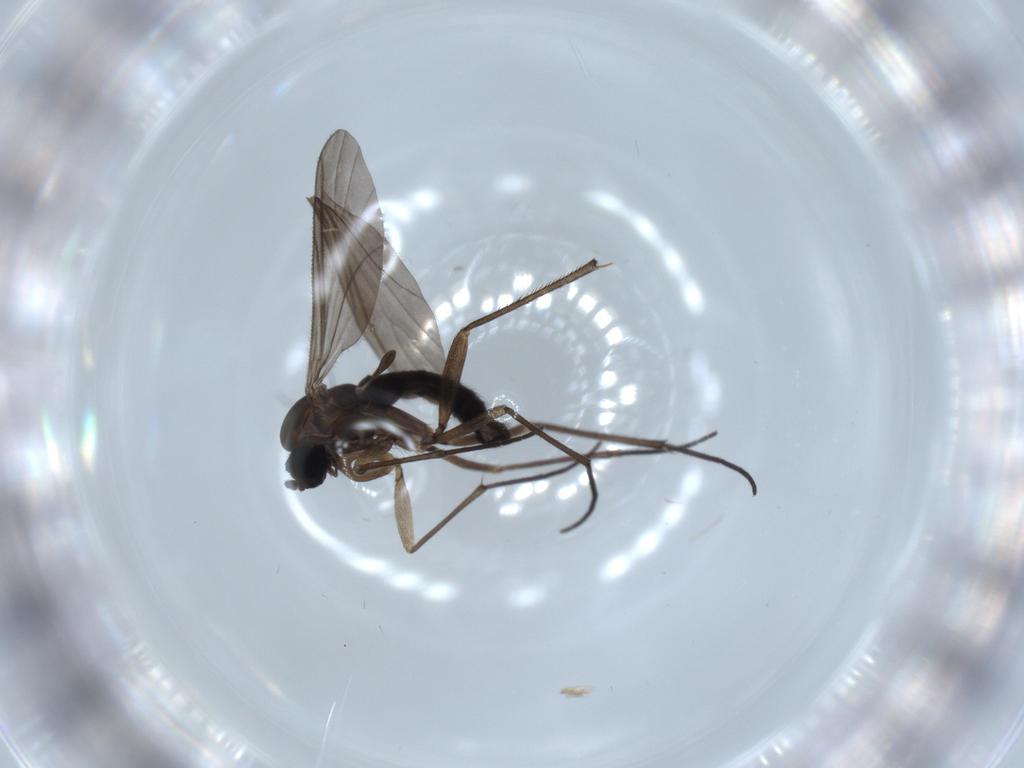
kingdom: Animalia
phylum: Arthropoda
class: Insecta
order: Diptera
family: Sciaridae
